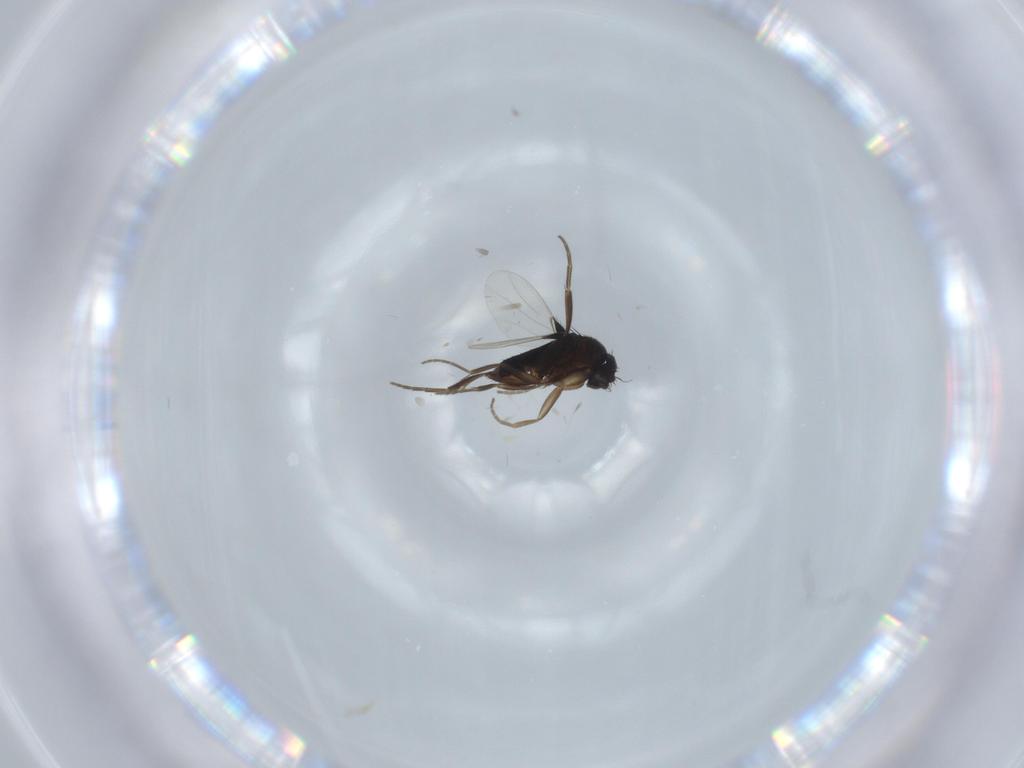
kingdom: Animalia
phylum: Arthropoda
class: Insecta
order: Diptera
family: Phoridae
